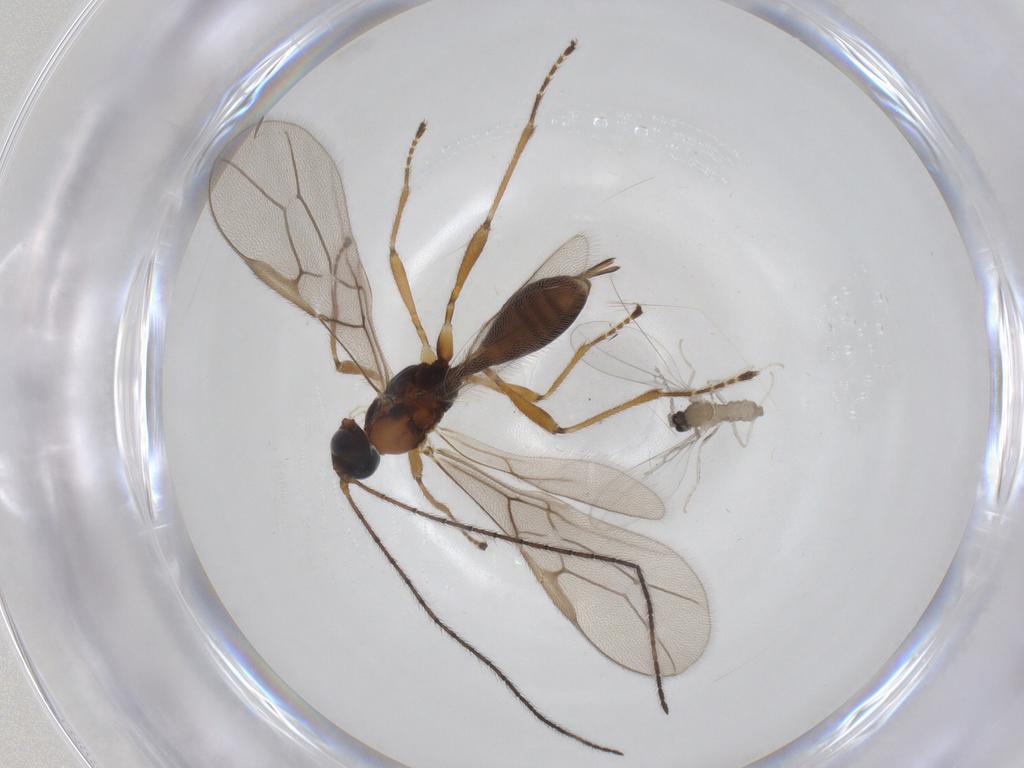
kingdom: Animalia
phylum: Arthropoda
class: Insecta
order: Diptera
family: Cecidomyiidae
